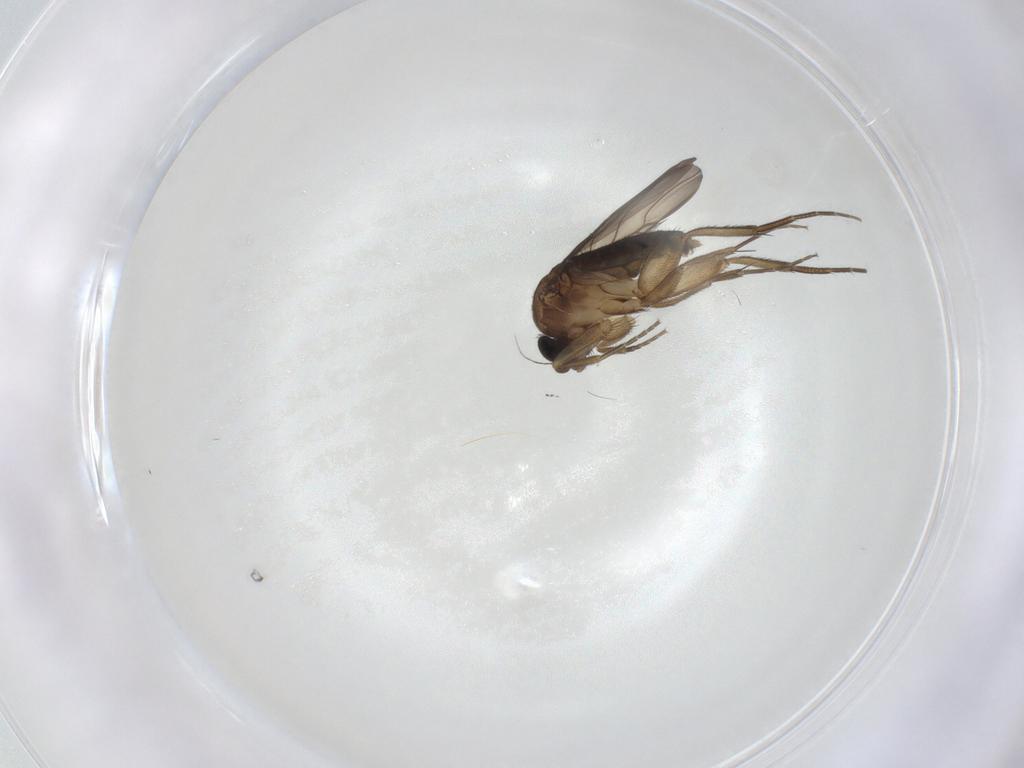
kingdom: Animalia
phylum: Arthropoda
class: Insecta
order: Diptera
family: Phoridae
